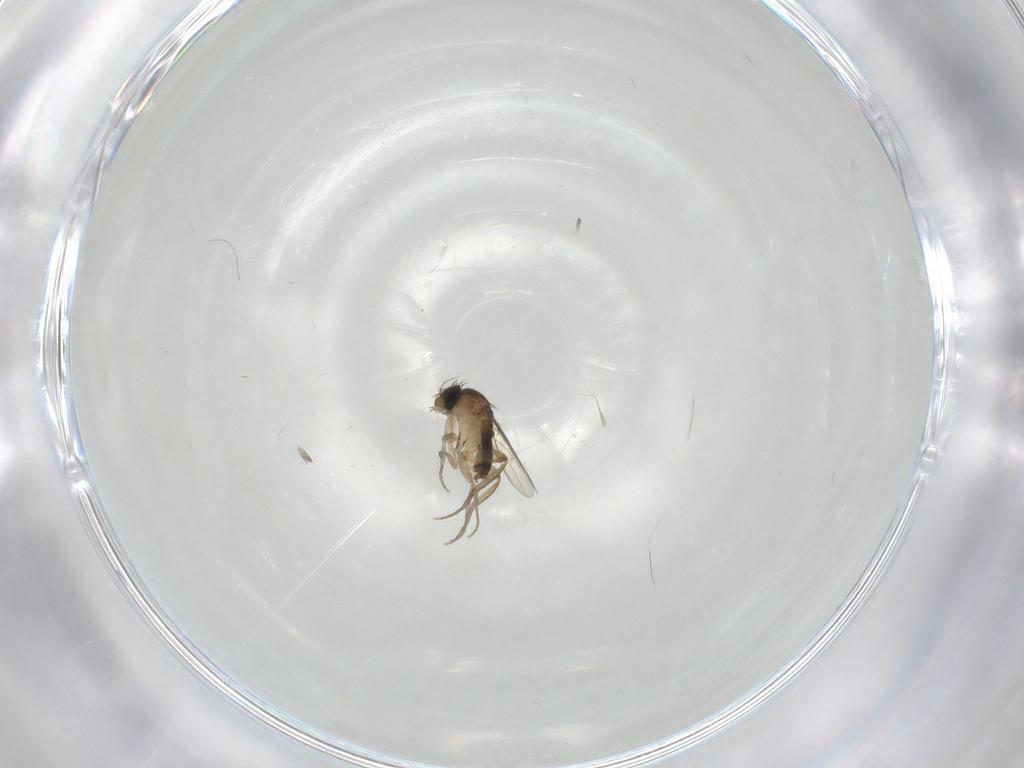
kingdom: Animalia
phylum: Arthropoda
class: Insecta
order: Diptera
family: Phoridae
